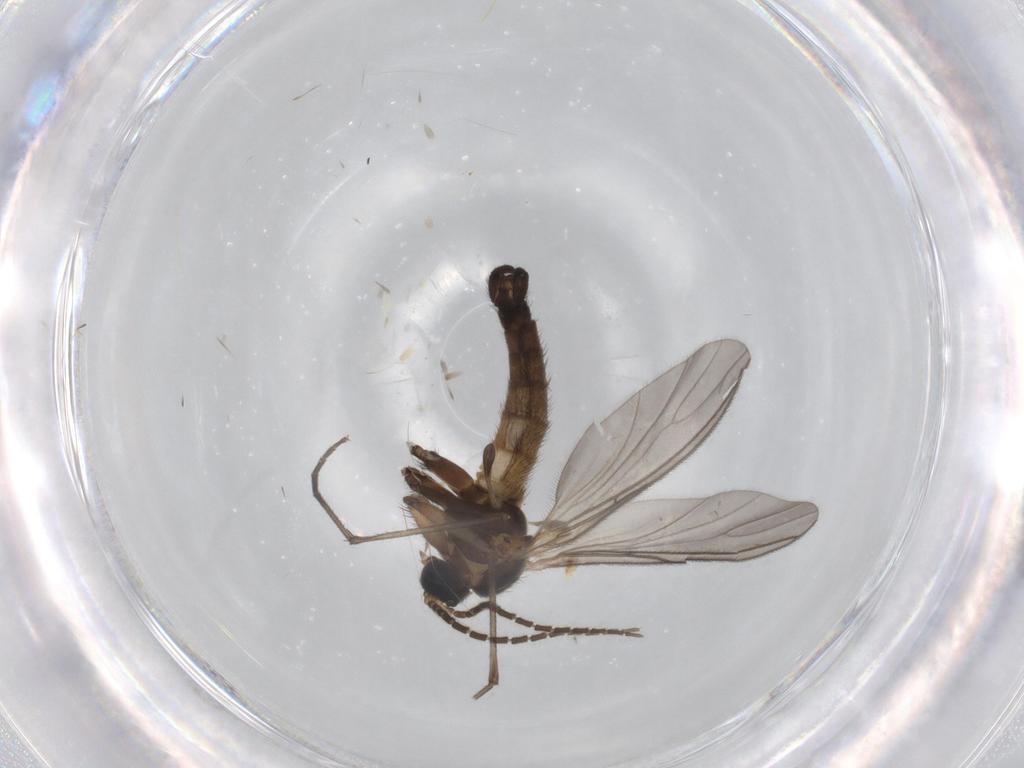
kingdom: Animalia
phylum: Arthropoda
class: Insecta
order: Diptera
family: Sciaridae
